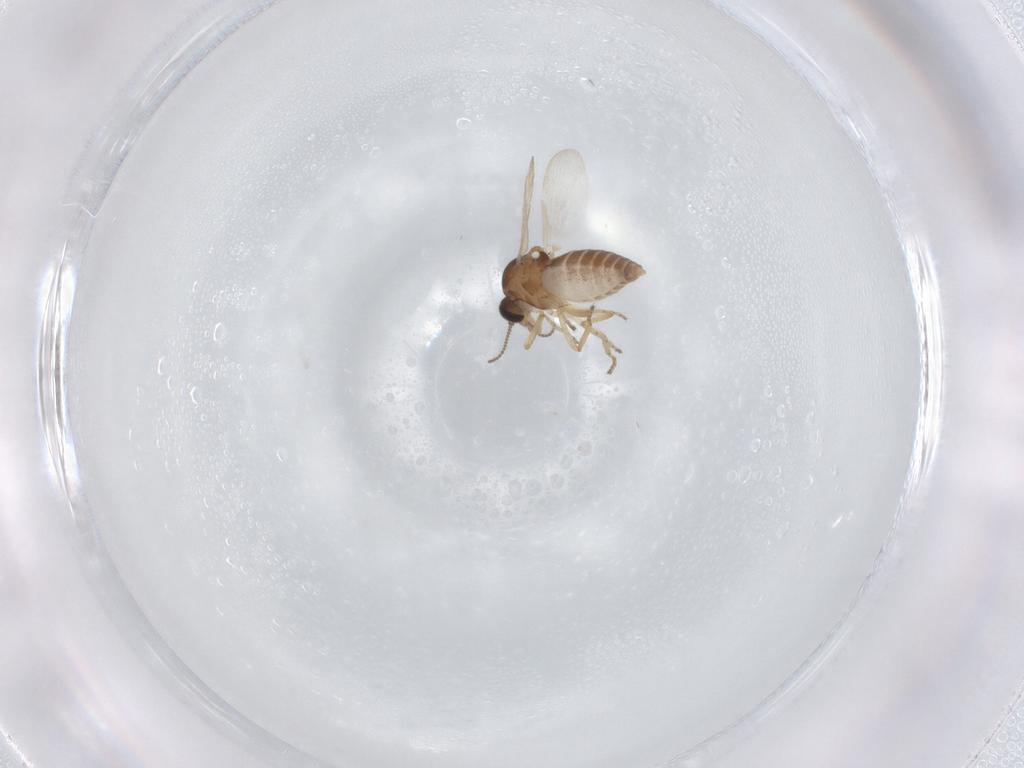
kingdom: Animalia
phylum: Arthropoda
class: Insecta
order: Diptera
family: Ceratopogonidae
